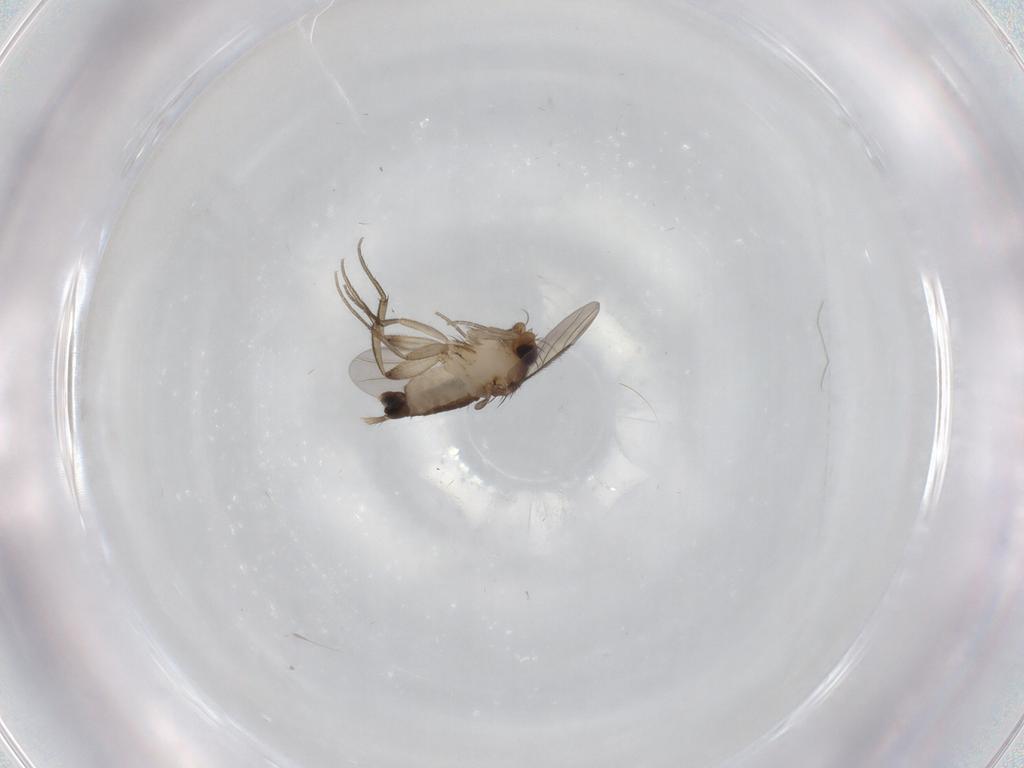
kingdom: Animalia
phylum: Arthropoda
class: Insecta
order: Diptera
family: Phoridae
